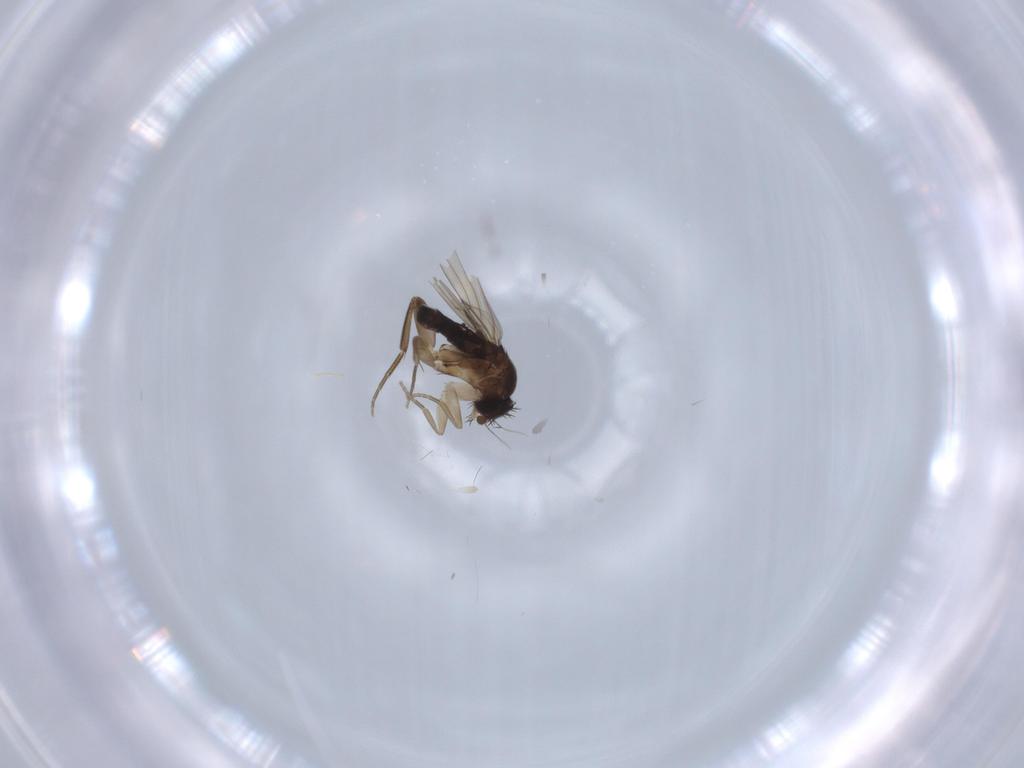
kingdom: Animalia
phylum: Arthropoda
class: Insecta
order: Diptera
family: Phoridae
